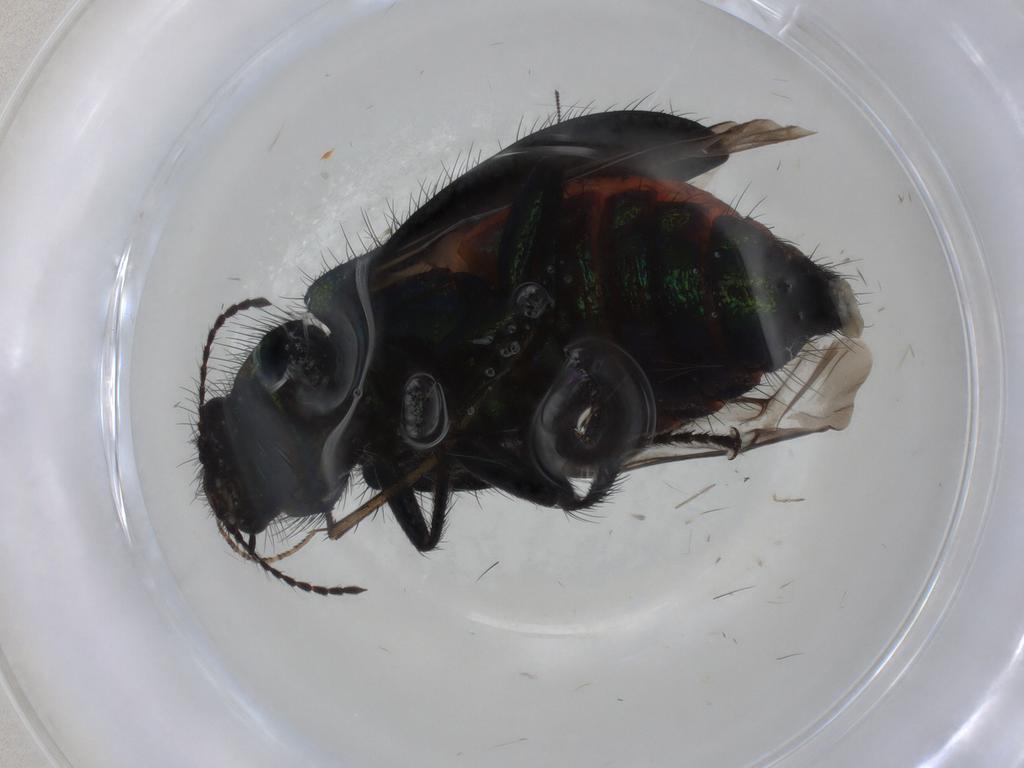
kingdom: Animalia
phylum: Arthropoda
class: Insecta
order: Coleoptera
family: Melyridae
